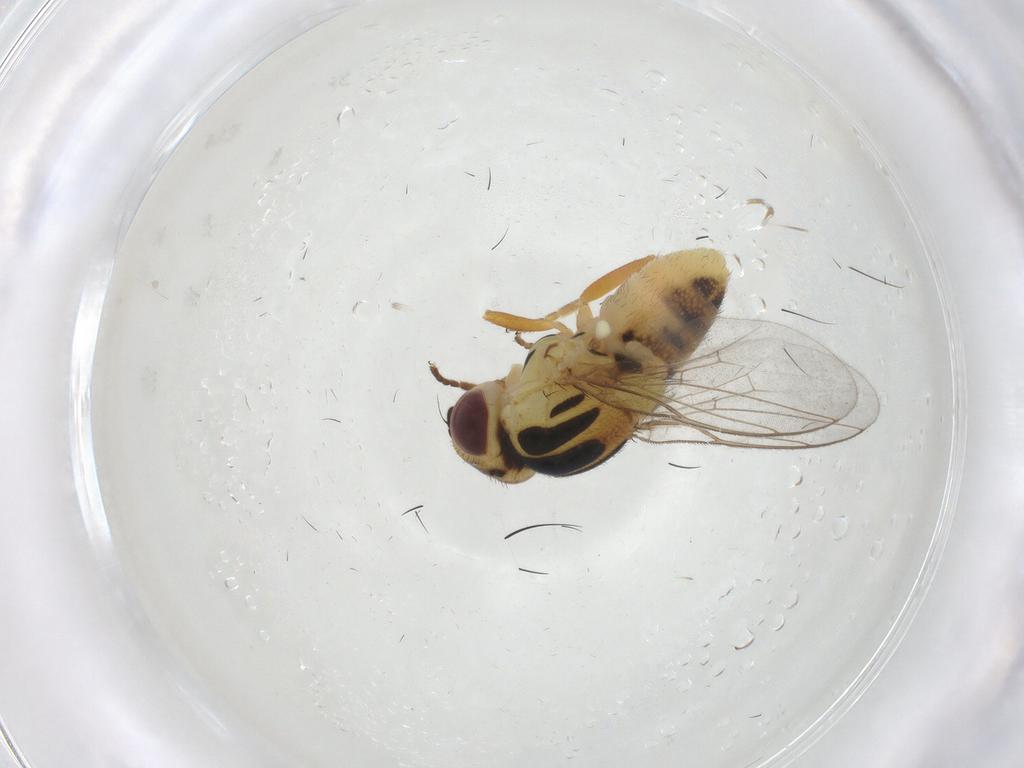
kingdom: Animalia
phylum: Arthropoda
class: Insecta
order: Diptera
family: Chloropidae
